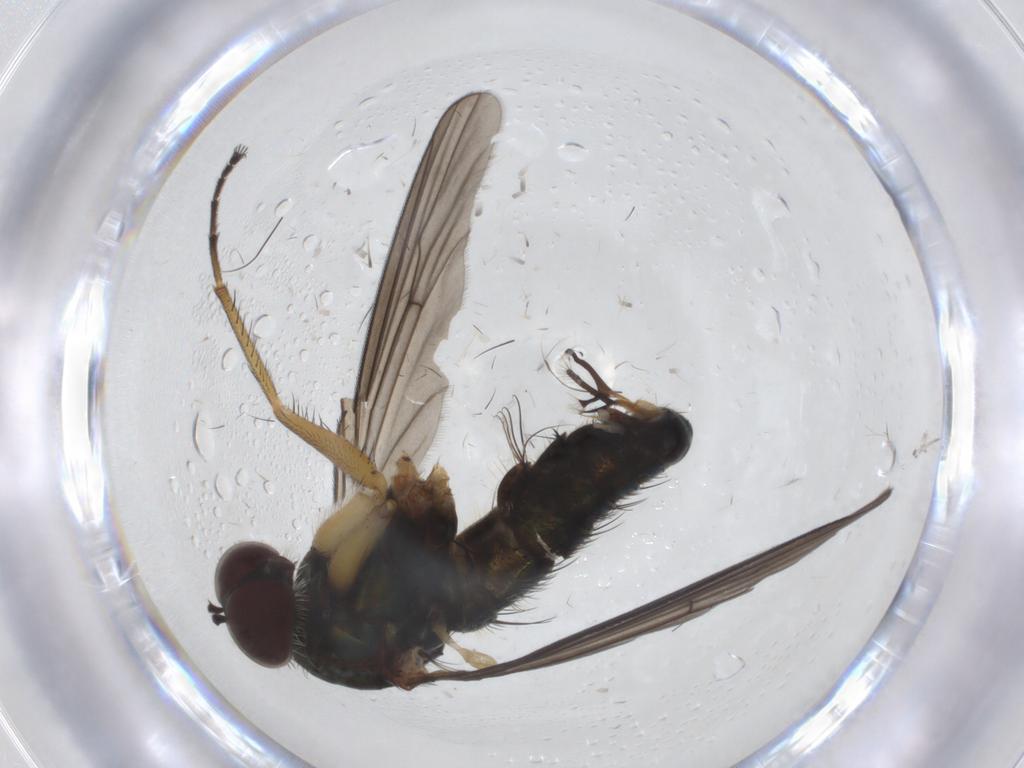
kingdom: Animalia
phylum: Arthropoda
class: Insecta
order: Diptera
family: Dolichopodidae
